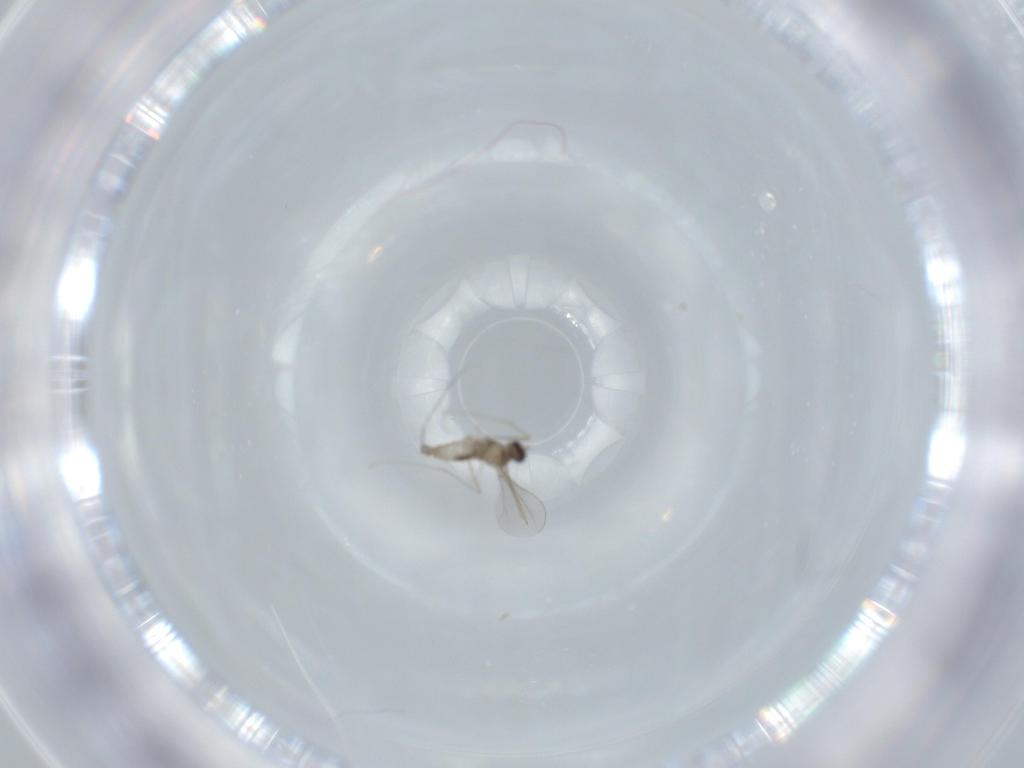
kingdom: Animalia
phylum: Arthropoda
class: Insecta
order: Diptera
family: Cecidomyiidae
